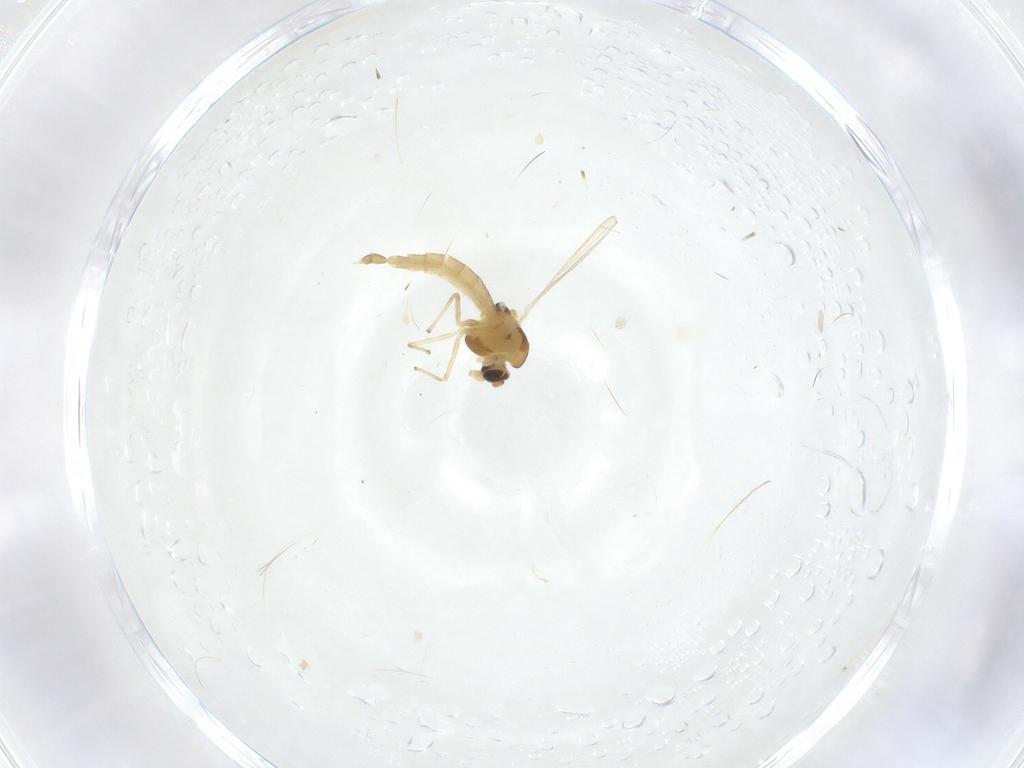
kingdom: Animalia
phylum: Arthropoda
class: Insecta
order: Diptera
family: Chironomidae
